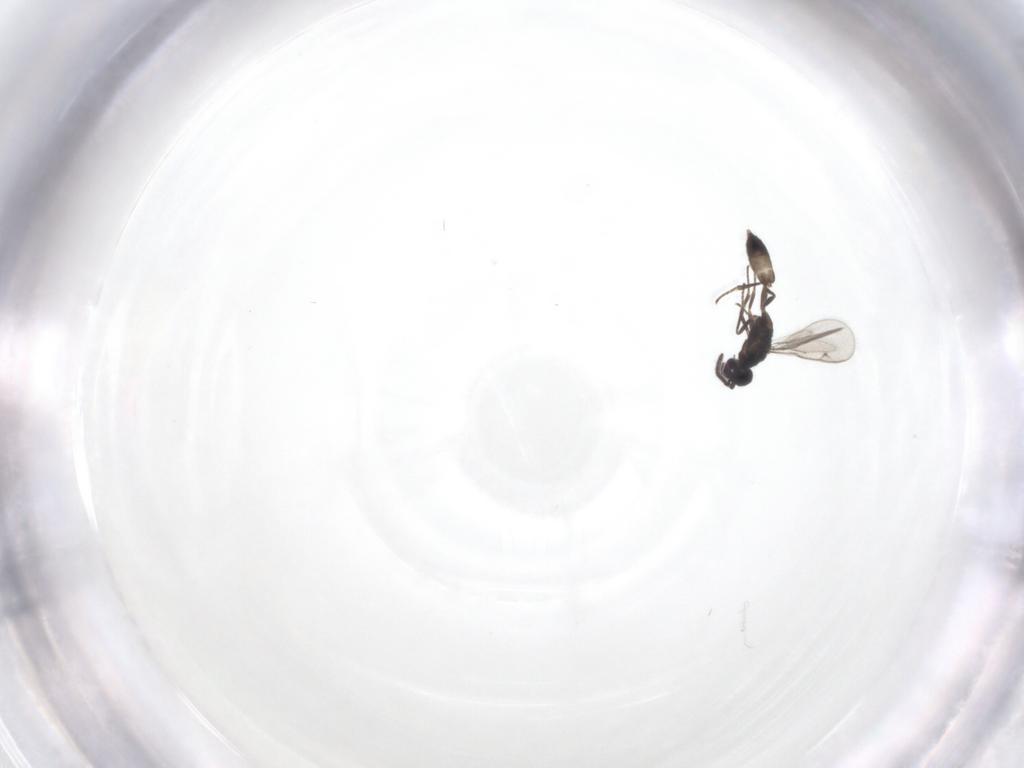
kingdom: Animalia
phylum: Arthropoda
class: Insecta
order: Hymenoptera
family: Eupelmidae
